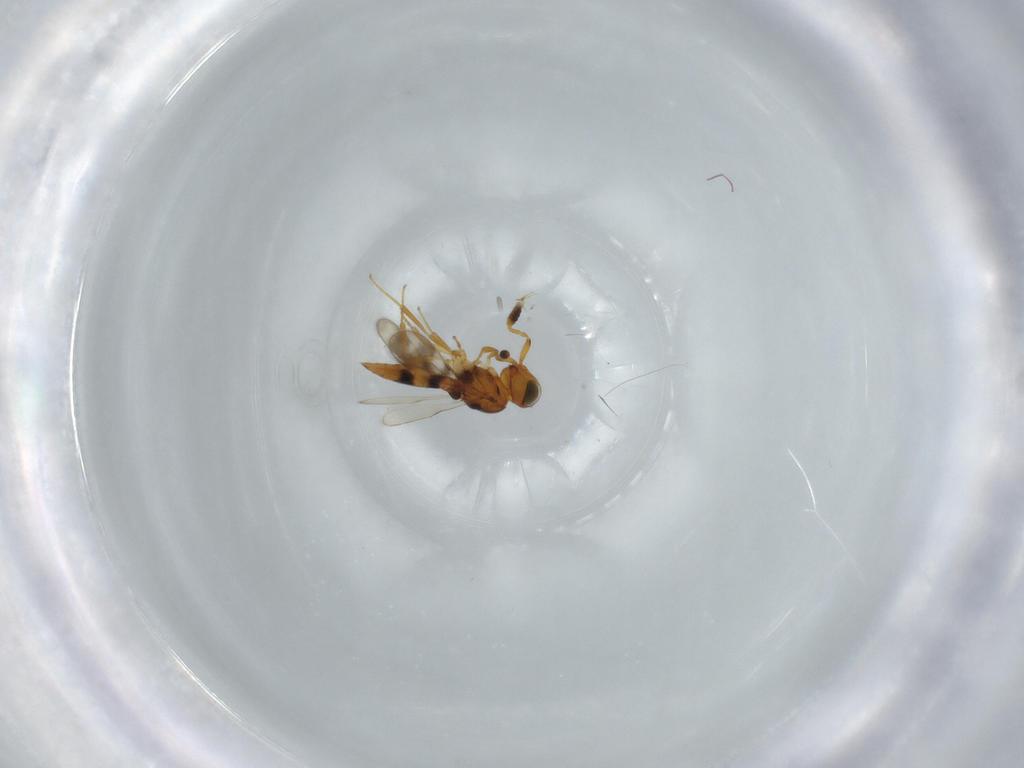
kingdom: Animalia
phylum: Arthropoda
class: Insecta
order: Hymenoptera
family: Scelionidae
